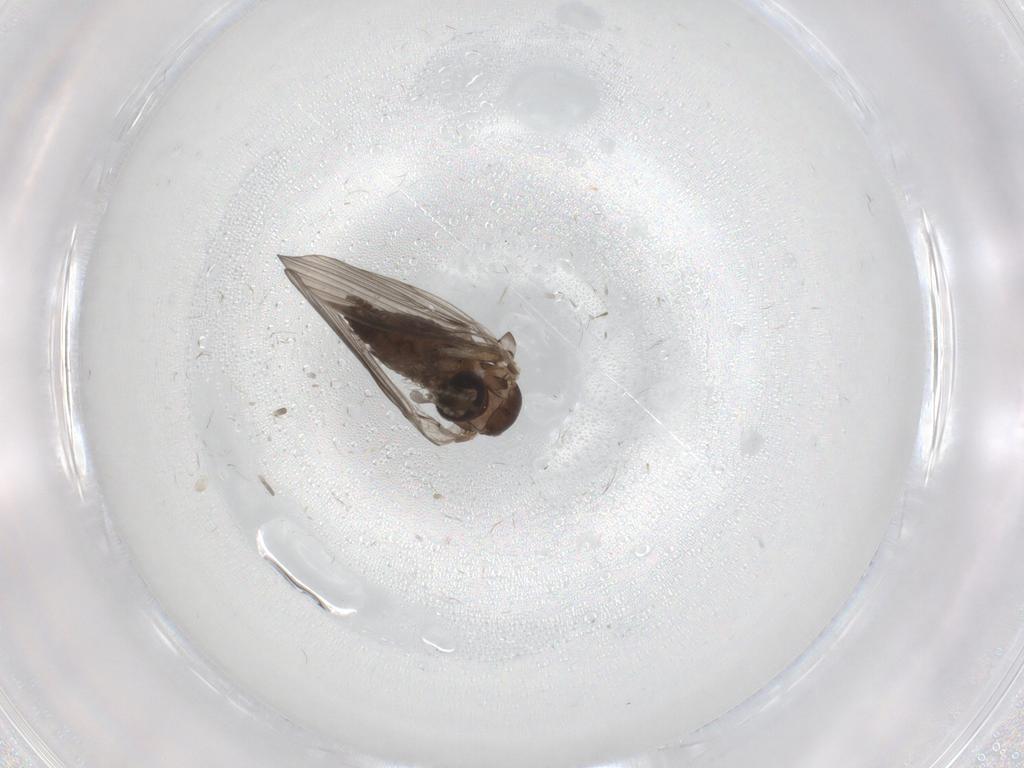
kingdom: Animalia
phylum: Arthropoda
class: Insecta
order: Diptera
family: Psychodidae
